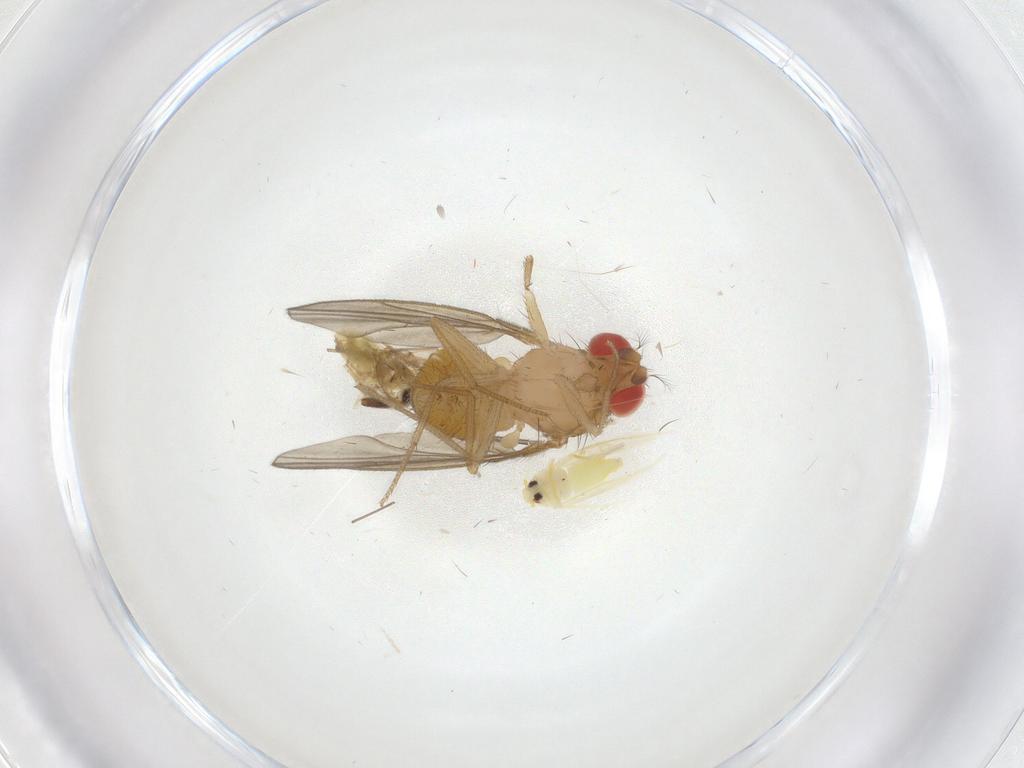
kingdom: Animalia
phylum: Arthropoda
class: Insecta
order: Diptera
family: Drosophilidae
